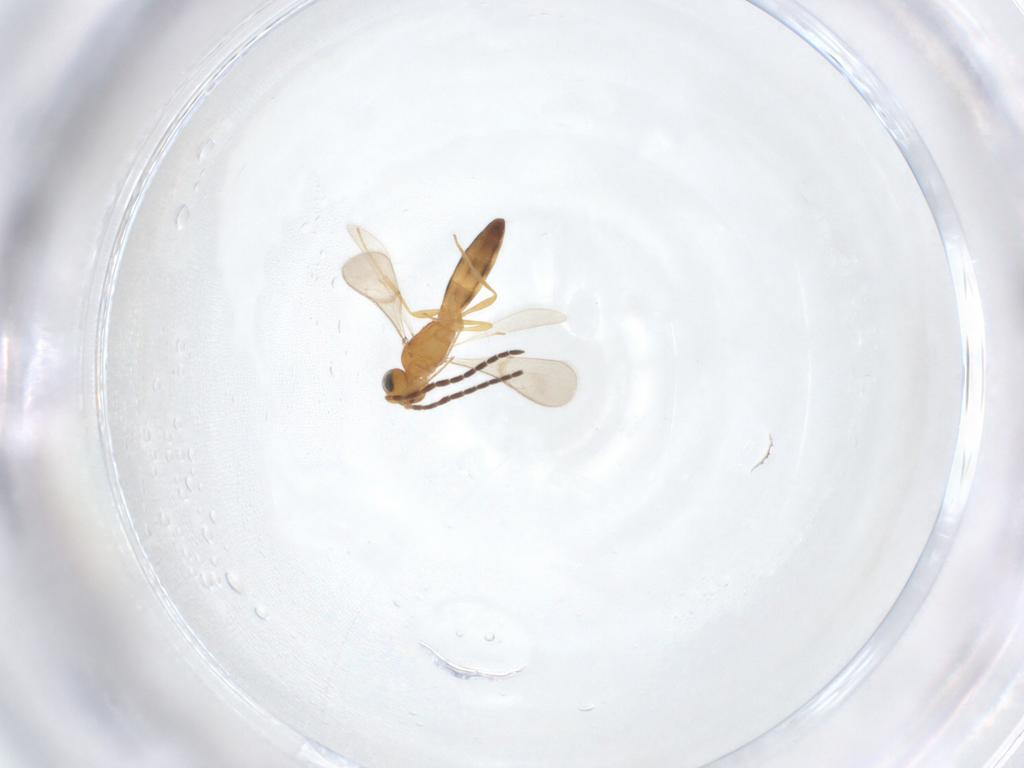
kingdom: Animalia
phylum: Arthropoda
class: Insecta
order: Hymenoptera
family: Scelionidae
